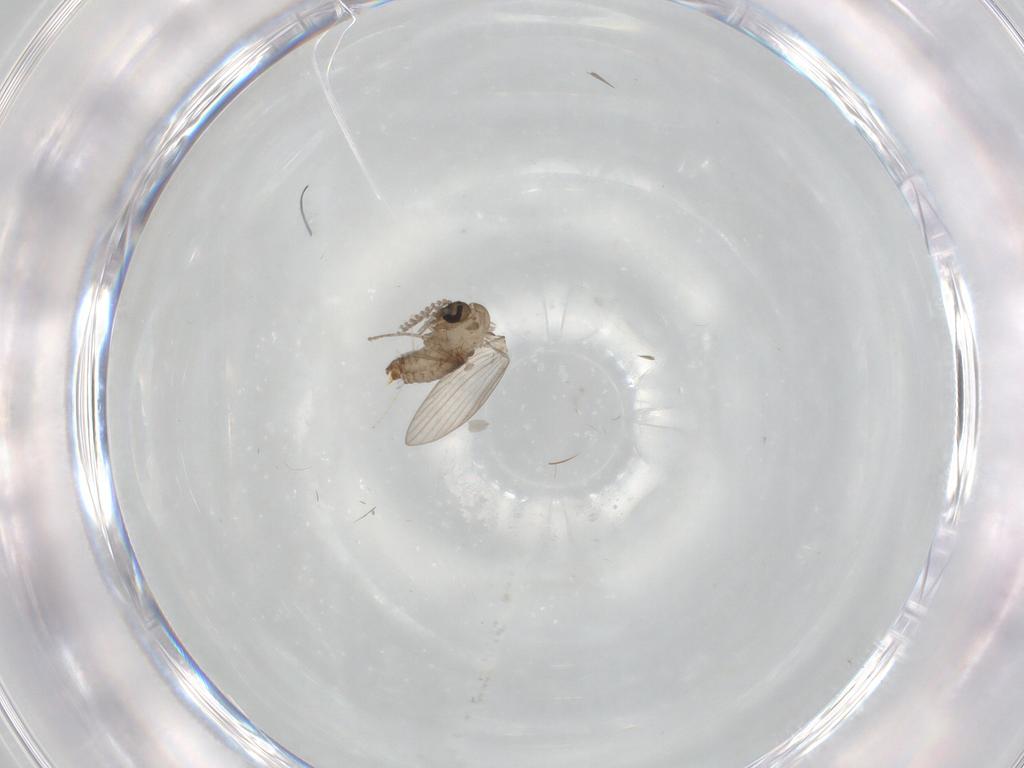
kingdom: Animalia
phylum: Arthropoda
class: Insecta
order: Diptera
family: Psychodidae
